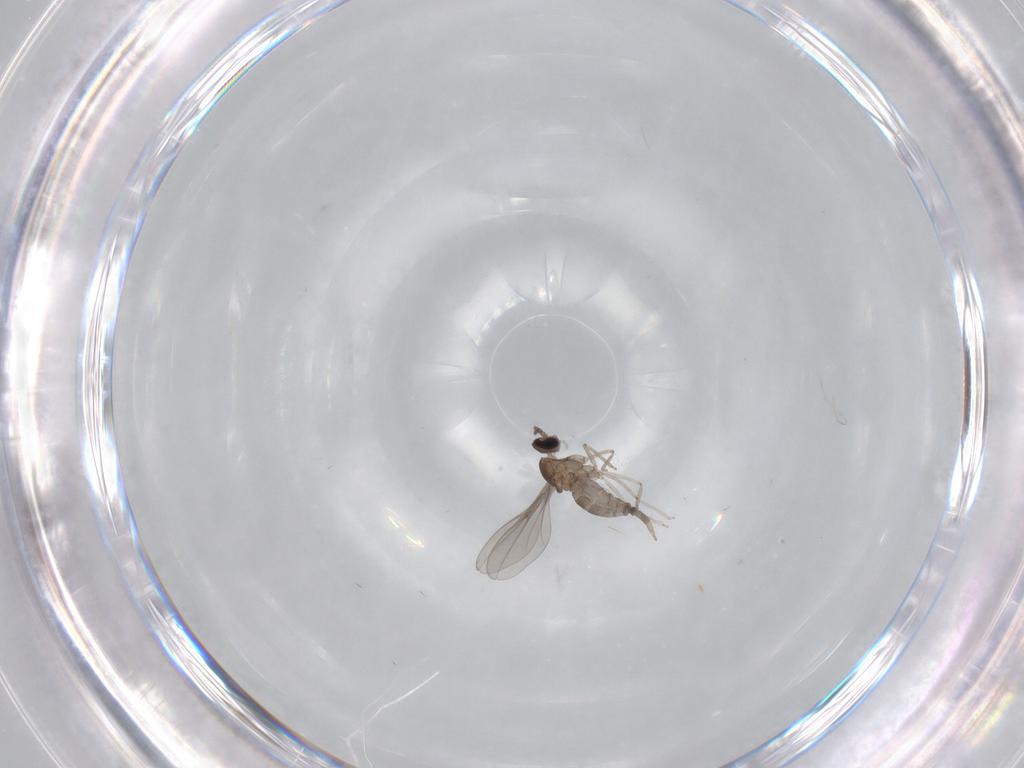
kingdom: Animalia
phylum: Arthropoda
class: Insecta
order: Diptera
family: Cecidomyiidae
